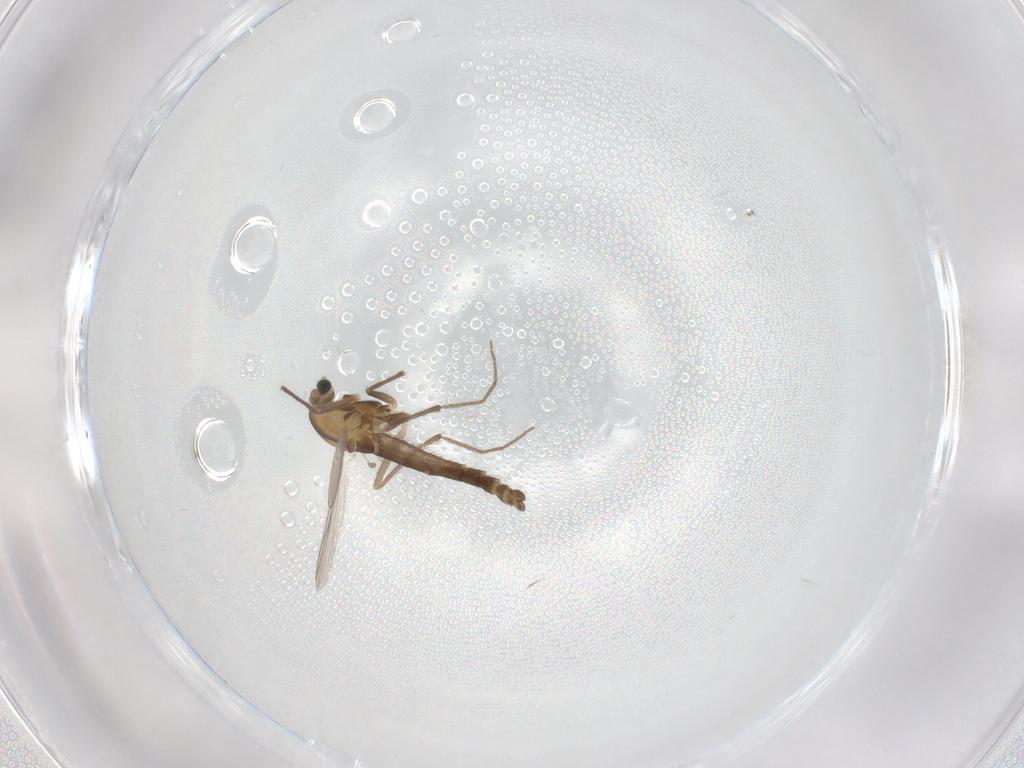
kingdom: Animalia
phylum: Arthropoda
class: Insecta
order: Diptera
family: Chironomidae
